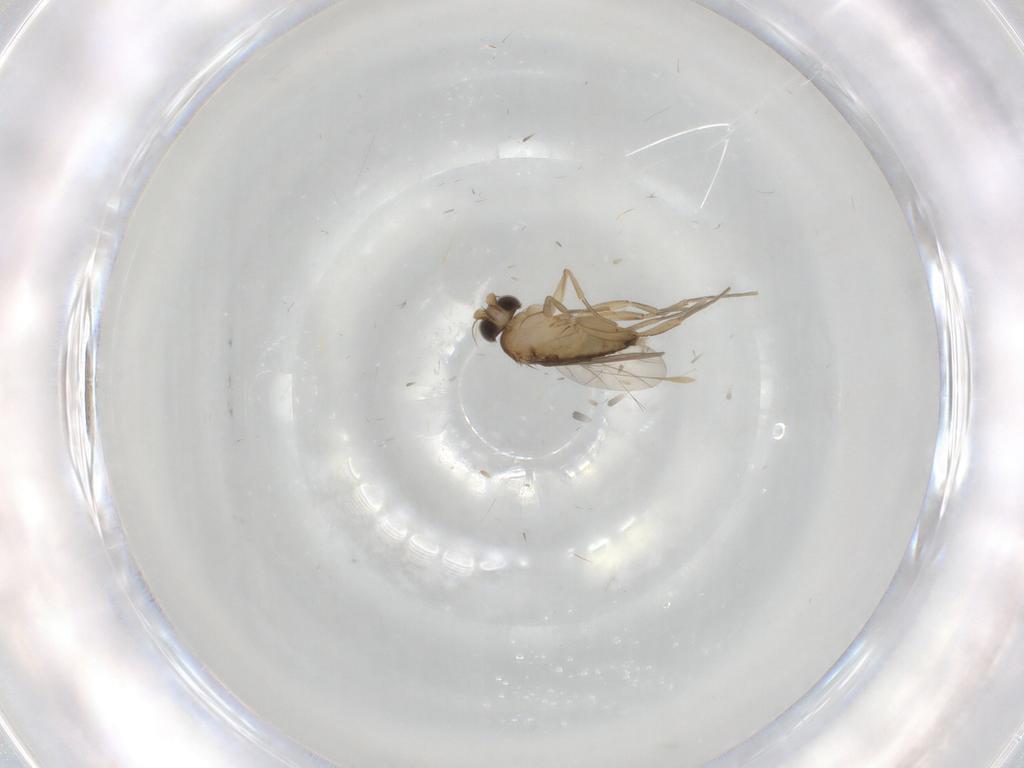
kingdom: Animalia
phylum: Arthropoda
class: Insecta
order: Diptera
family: Phoridae
